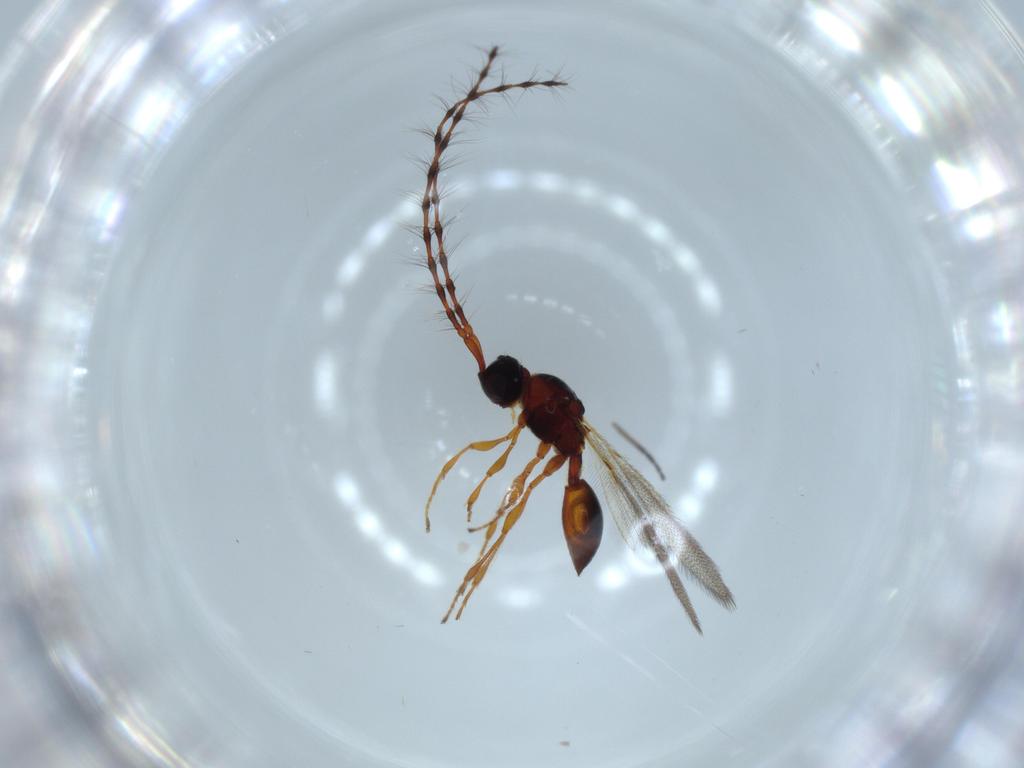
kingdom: Animalia
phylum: Arthropoda
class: Insecta
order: Hymenoptera
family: Diapriidae
